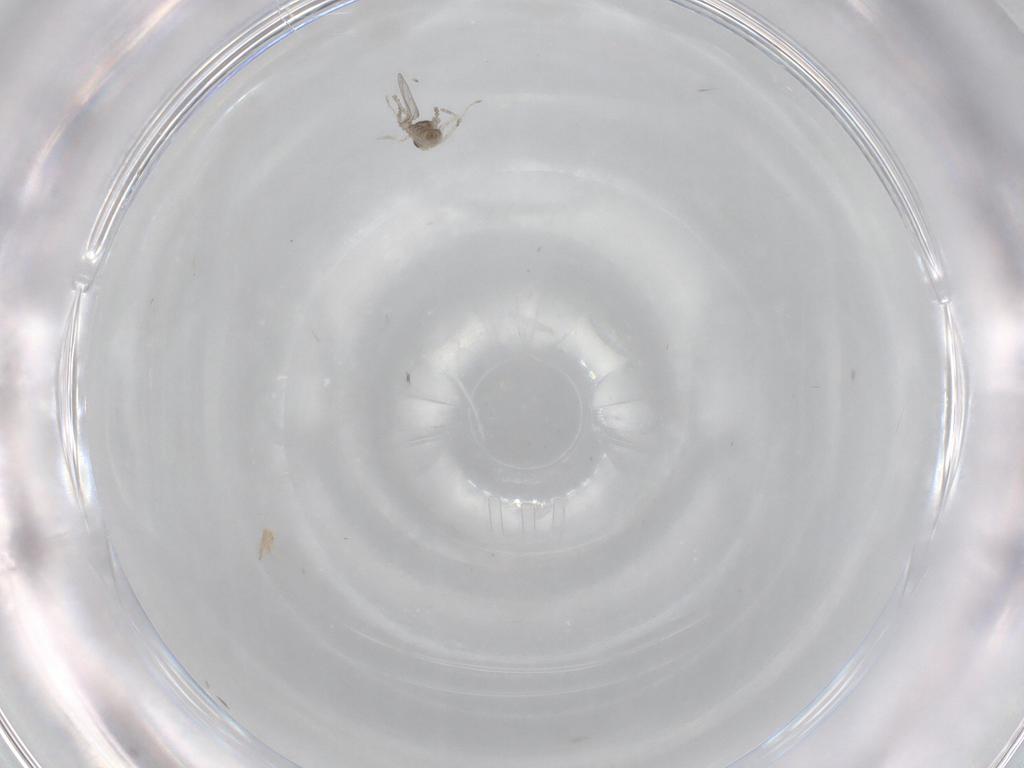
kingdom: Animalia
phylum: Arthropoda
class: Insecta
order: Diptera
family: Cecidomyiidae
